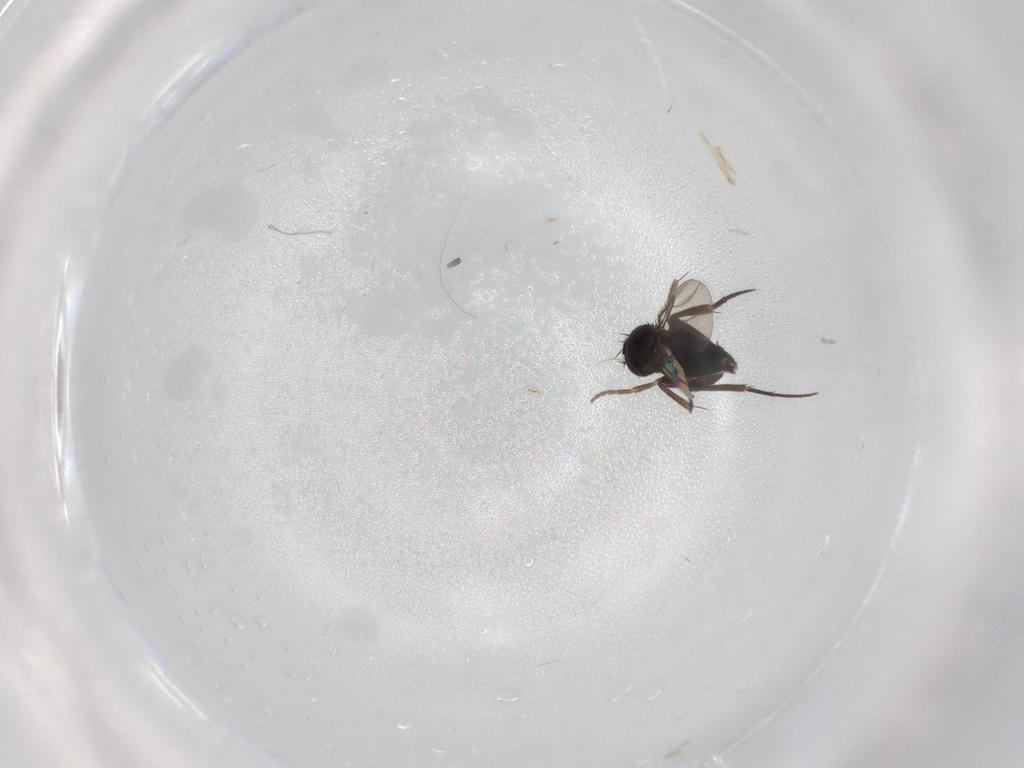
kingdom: Animalia
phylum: Arthropoda
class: Insecta
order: Diptera
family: Phoridae
